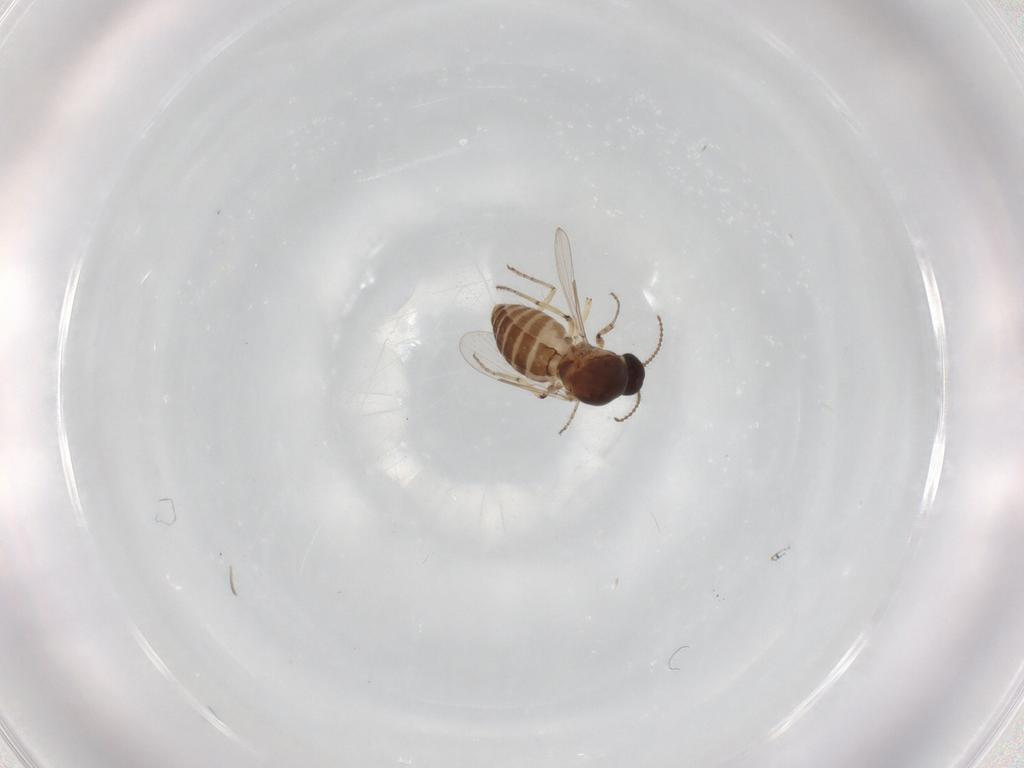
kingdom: Animalia
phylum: Arthropoda
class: Insecta
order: Diptera
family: Ceratopogonidae
